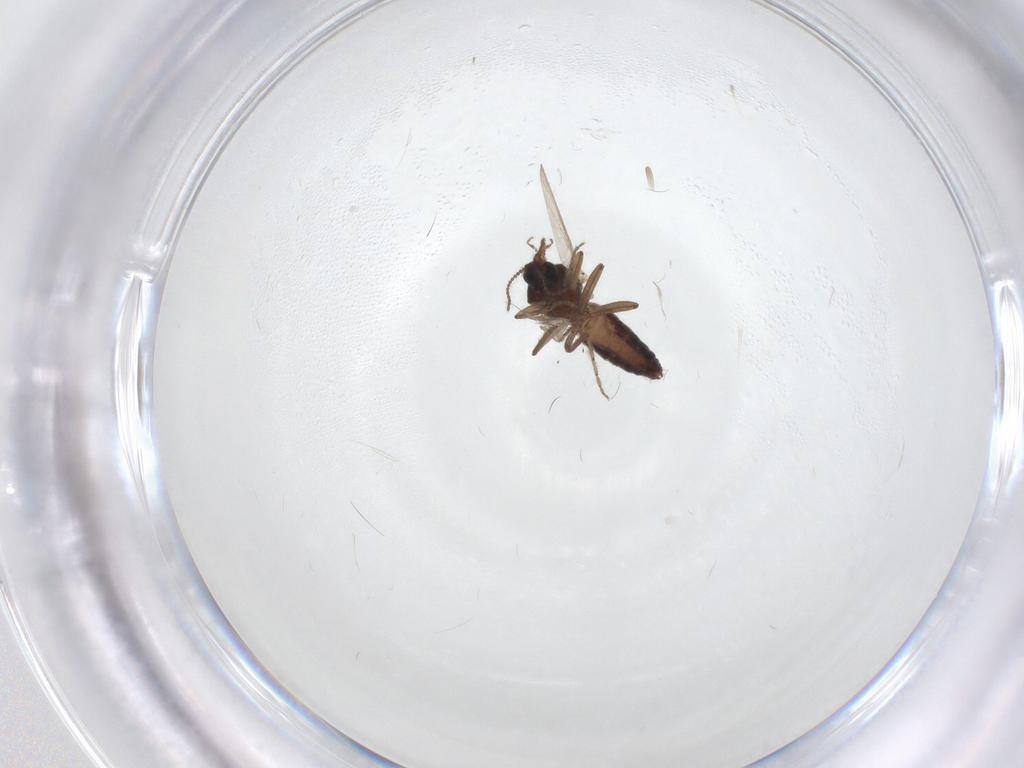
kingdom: Animalia
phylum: Arthropoda
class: Insecta
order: Diptera
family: Ceratopogonidae
